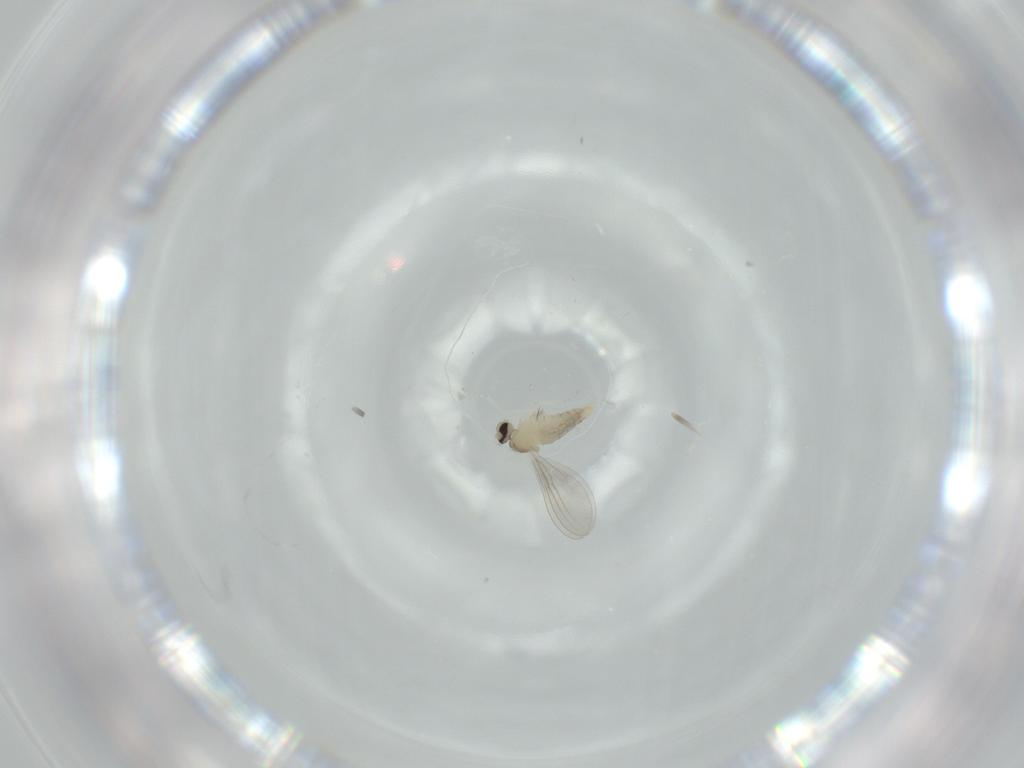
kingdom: Animalia
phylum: Arthropoda
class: Insecta
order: Diptera
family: Cecidomyiidae
